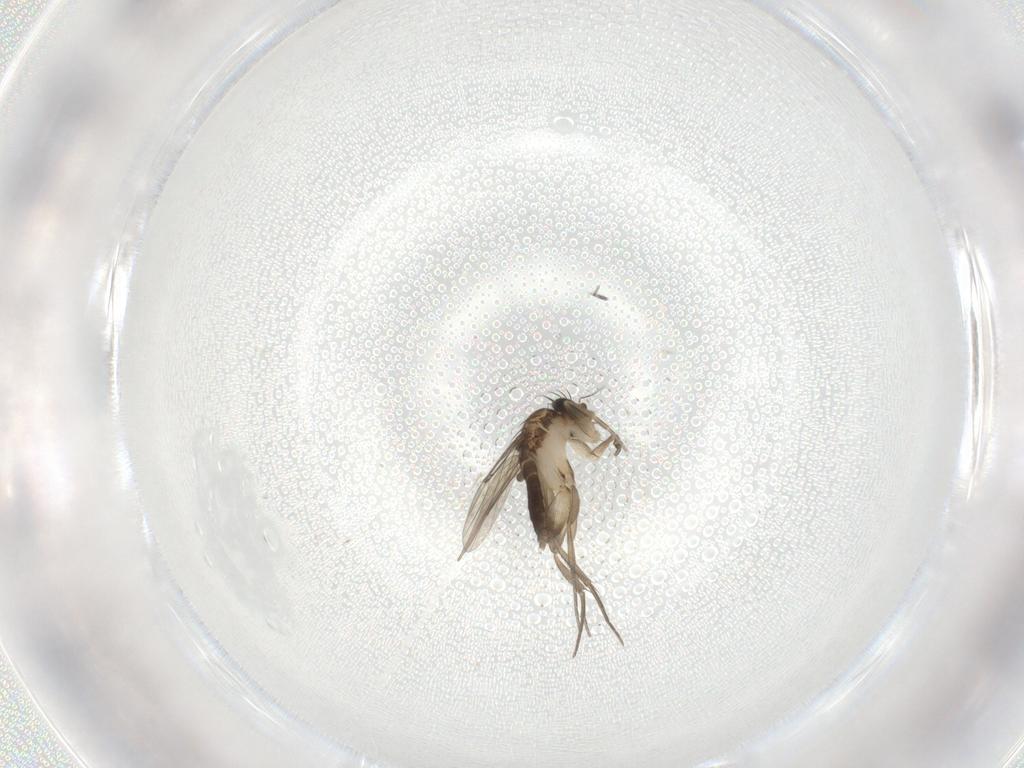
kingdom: Animalia
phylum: Arthropoda
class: Insecta
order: Diptera
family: Phoridae
